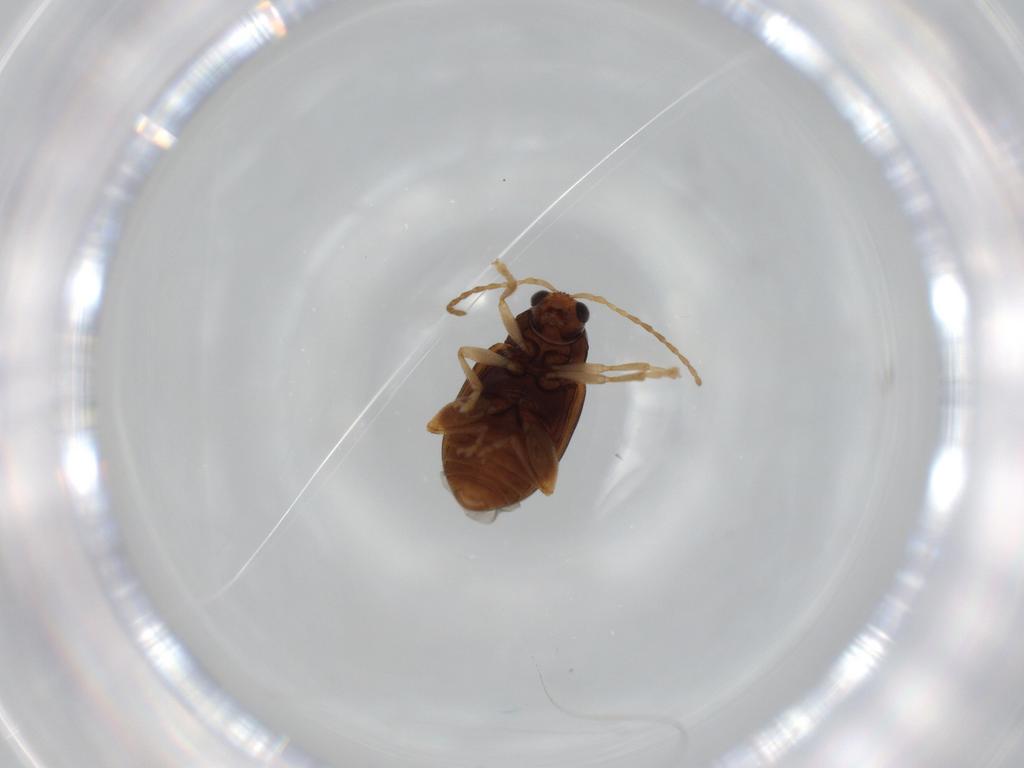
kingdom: Animalia
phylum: Arthropoda
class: Insecta
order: Coleoptera
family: Chrysomelidae
